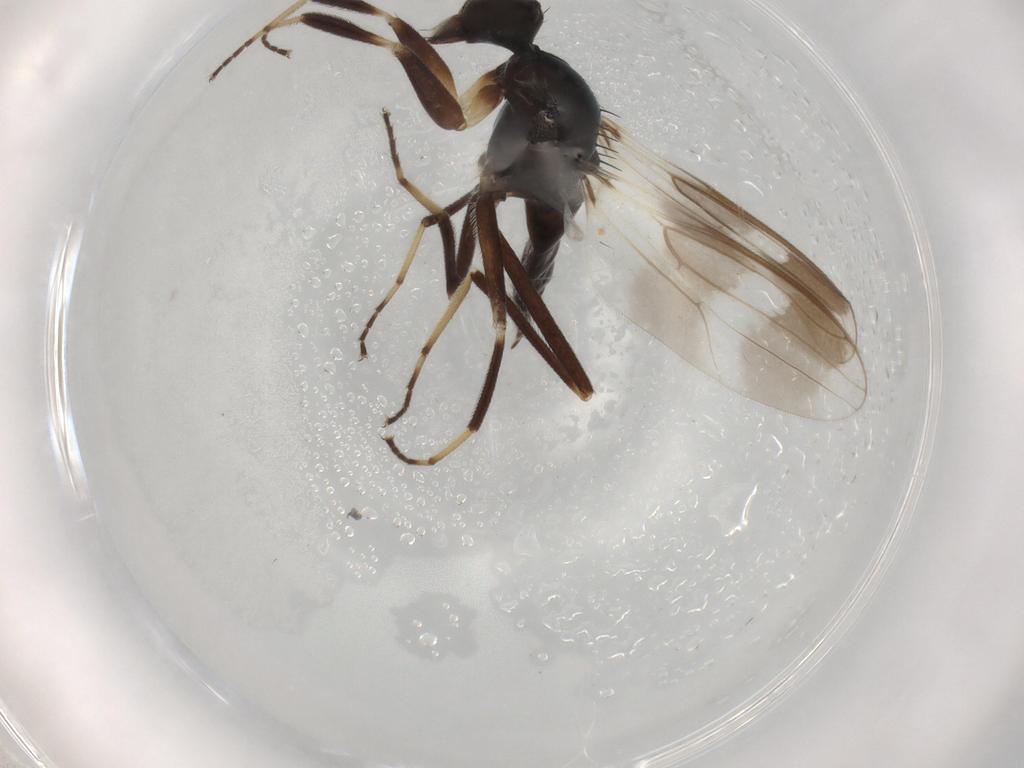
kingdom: Animalia
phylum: Arthropoda
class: Insecta
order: Diptera
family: Hybotidae
